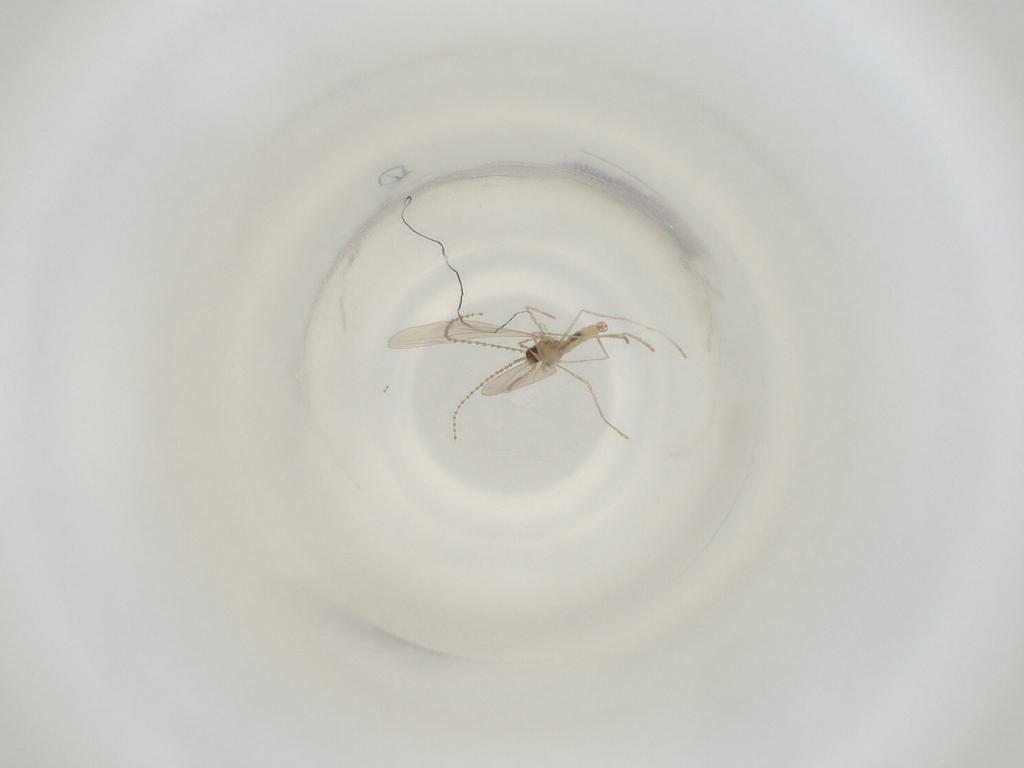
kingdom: Animalia
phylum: Arthropoda
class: Insecta
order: Diptera
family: Cecidomyiidae
